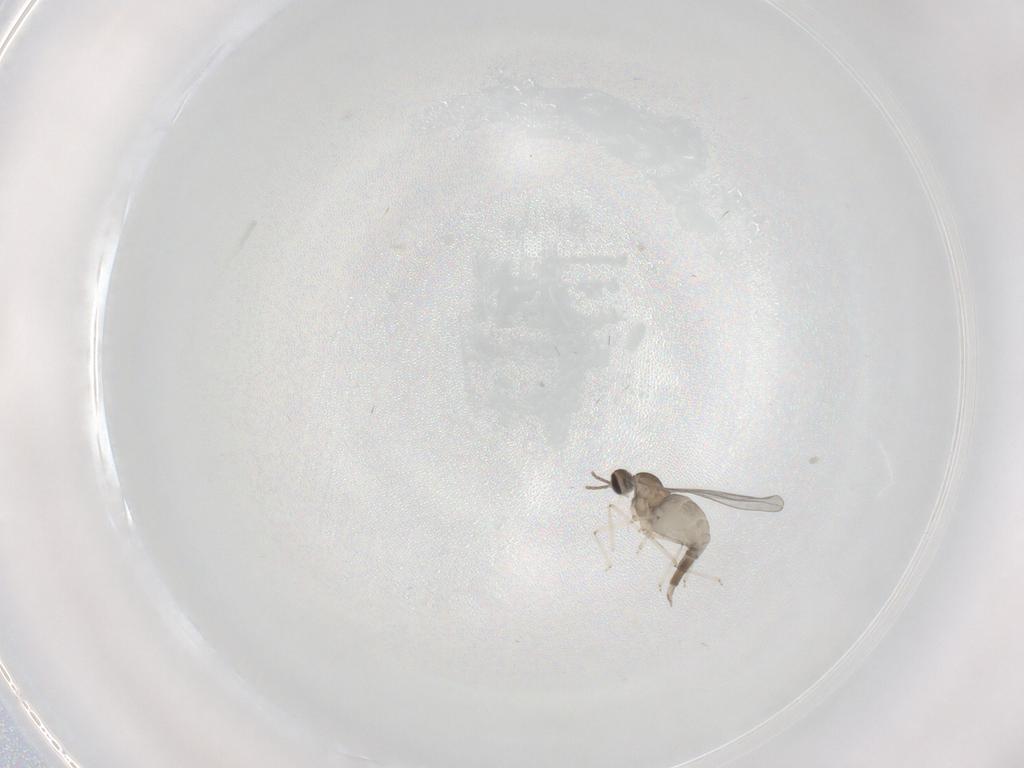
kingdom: Animalia
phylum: Arthropoda
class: Insecta
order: Diptera
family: Cecidomyiidae
